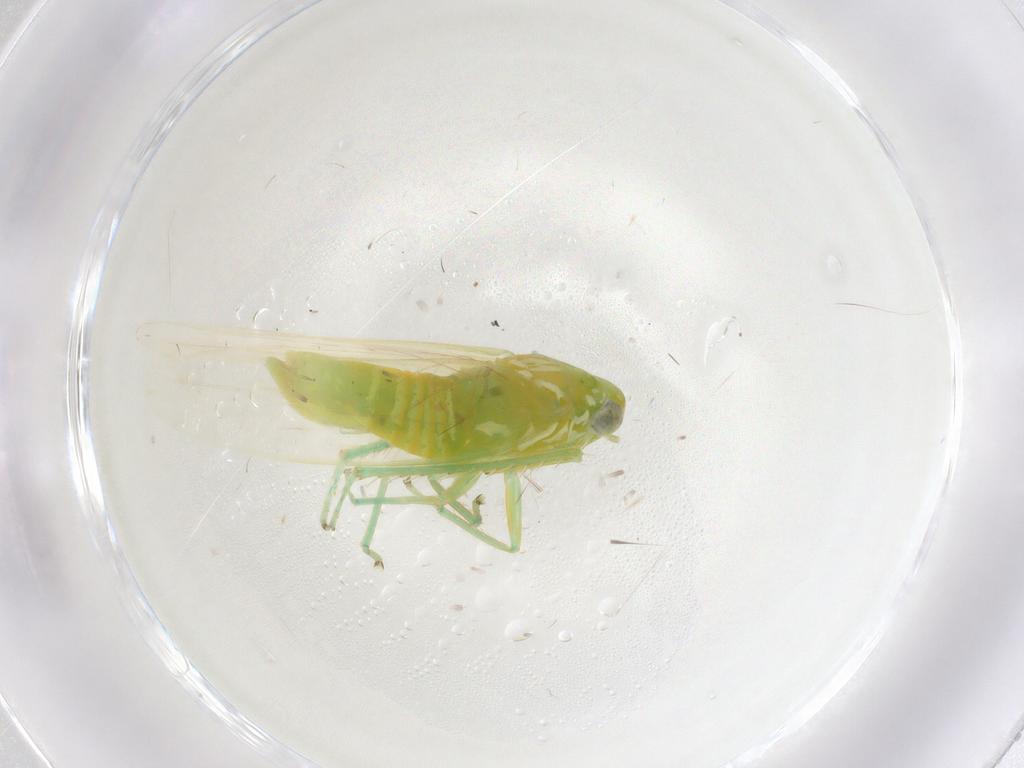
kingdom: Animalia
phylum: Arthropoda
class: Insecta
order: Hemiptera
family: Cicadellidae
